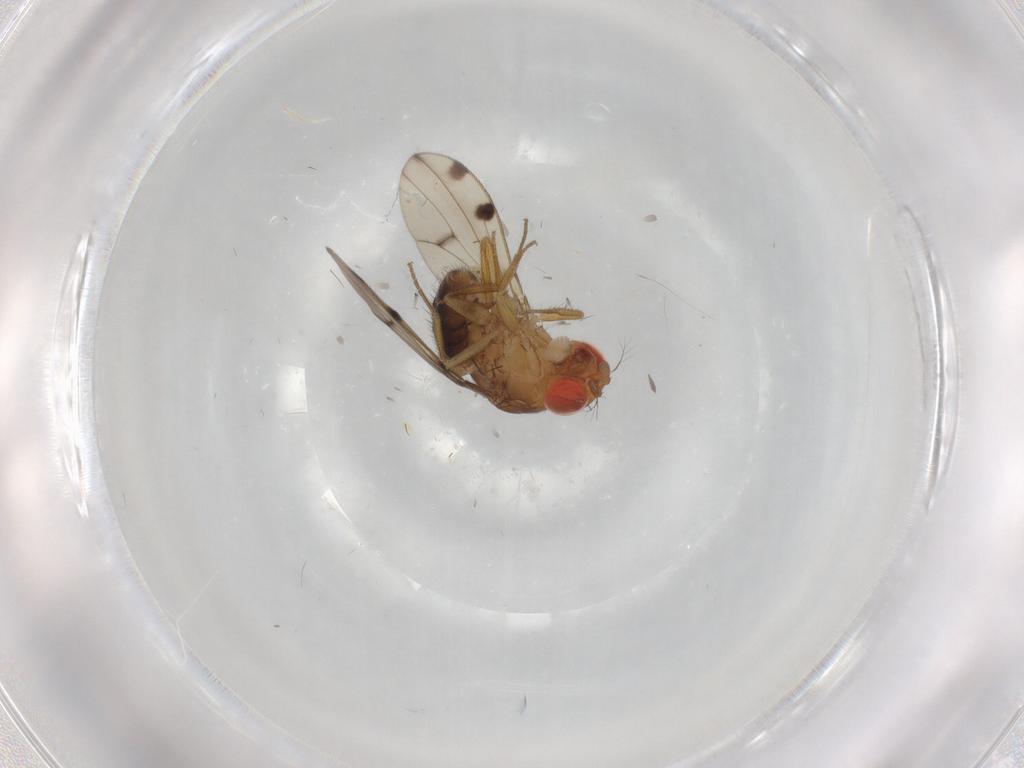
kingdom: Animalia
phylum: Arthropoda
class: Insecta
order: Diptera
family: Drosophilidae
